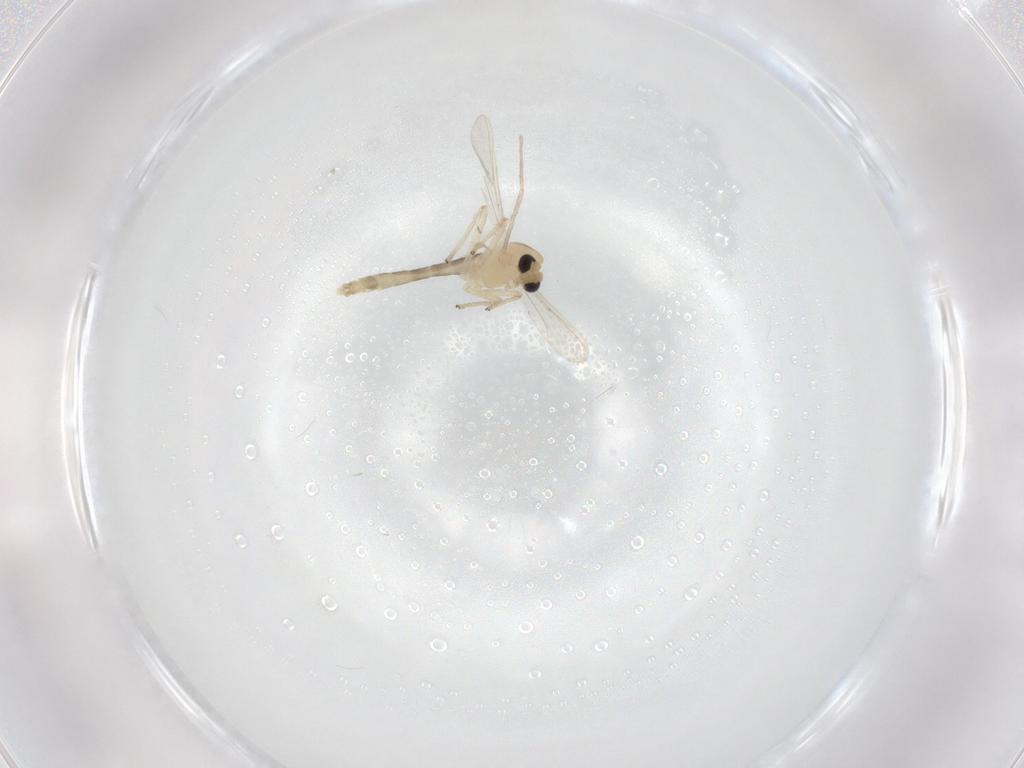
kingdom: Animalia
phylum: Arthropoda
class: Insecta
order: Diptera
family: Chironomidae
